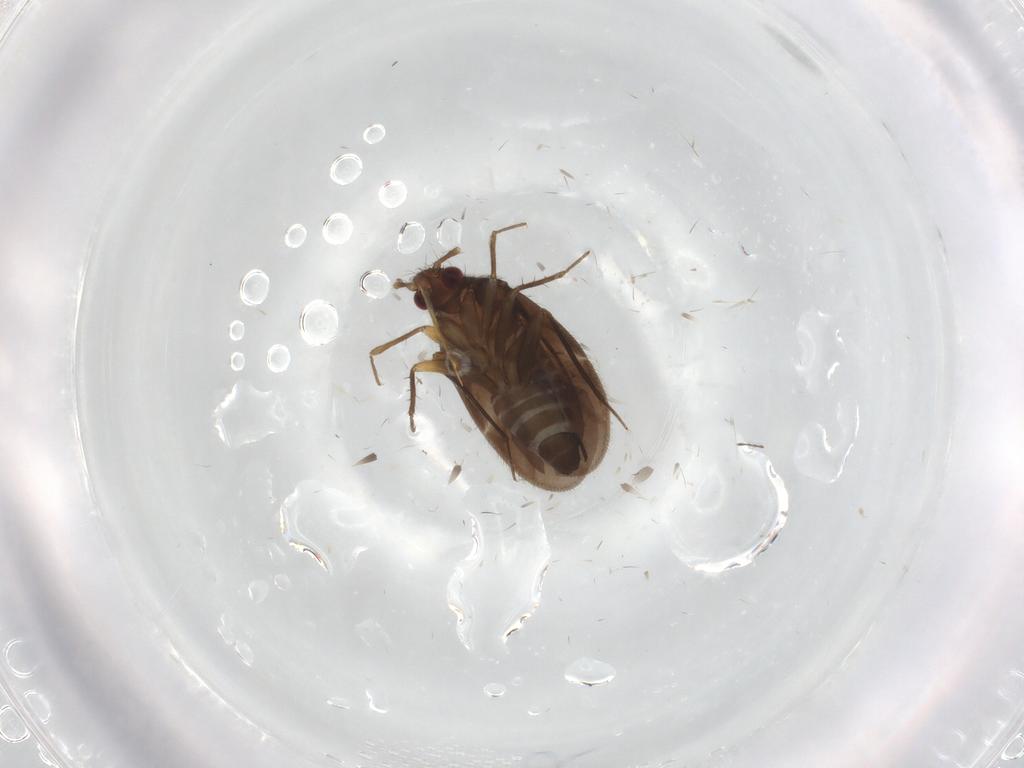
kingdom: Animalia
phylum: Arthropoda
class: Insecta
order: Hemiptera
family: Ceratocombidae
